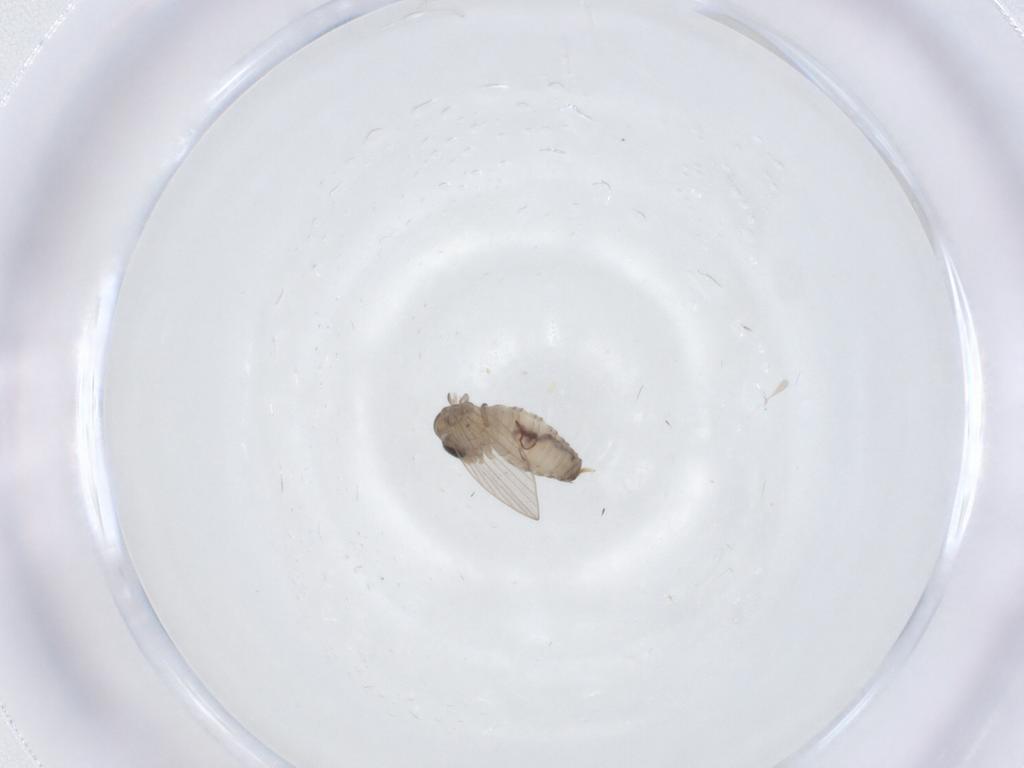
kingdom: Animalia
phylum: Arthropoda
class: Insecta
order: Diptera
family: Psychodidae
